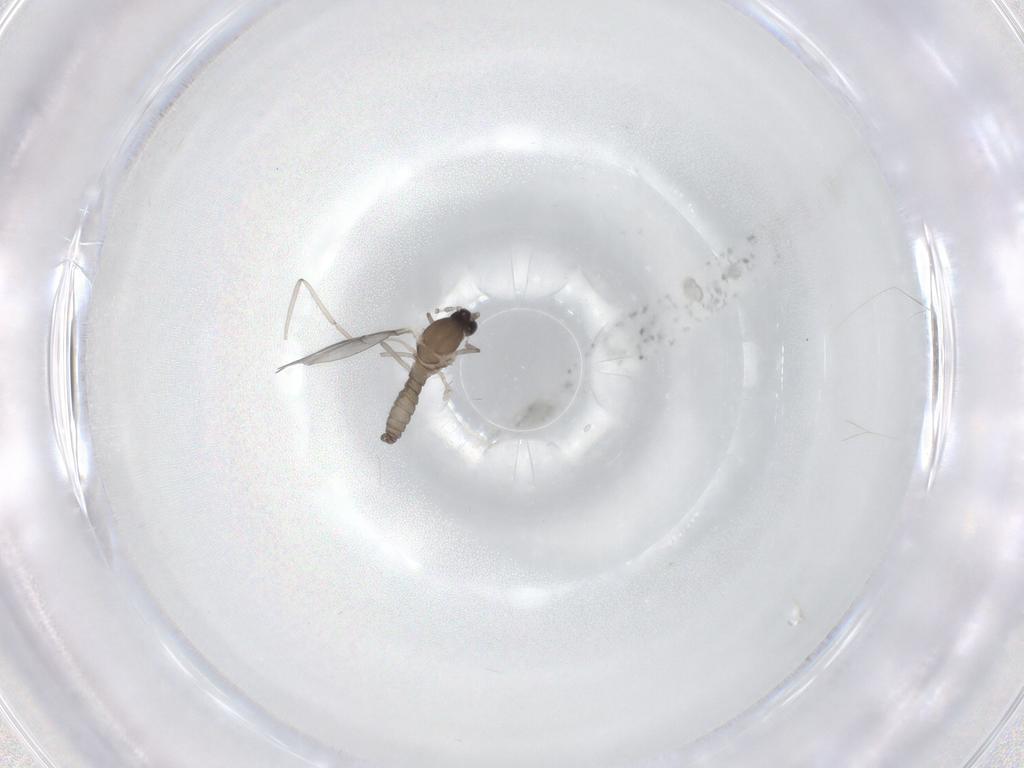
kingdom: Animalia
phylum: Arthropoda
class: Insecta
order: Diptera
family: Cecidomyiidae
